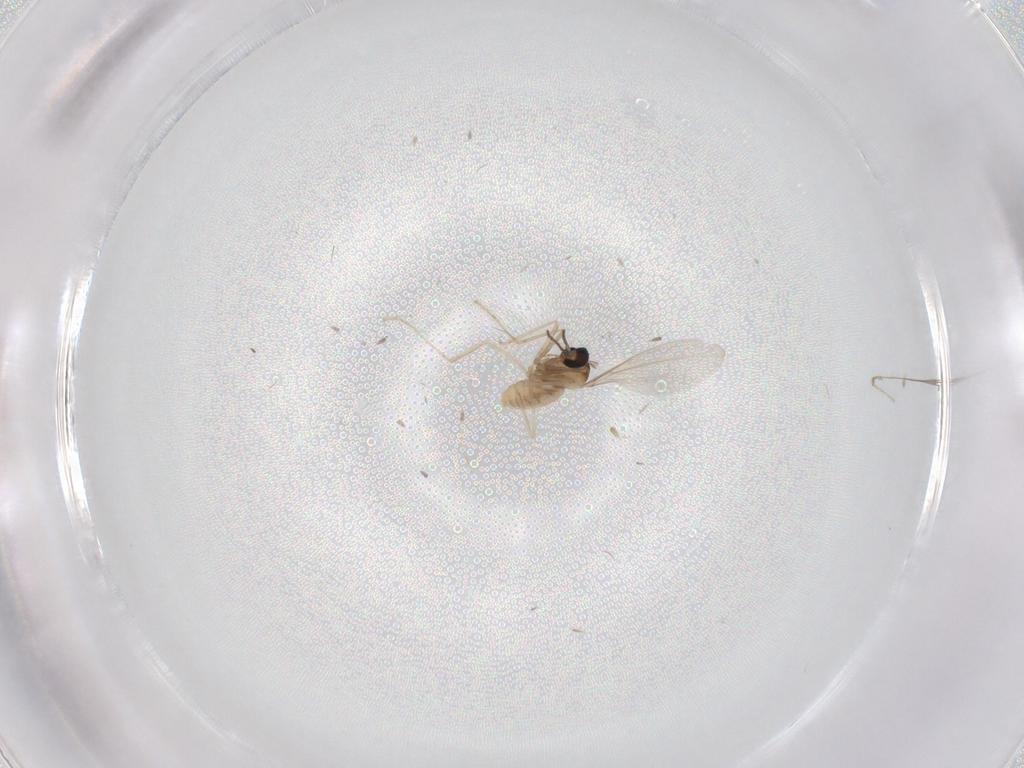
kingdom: Animalia
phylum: Arthropoda
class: Insecta
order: Diptera
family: Cecidomyiidae
